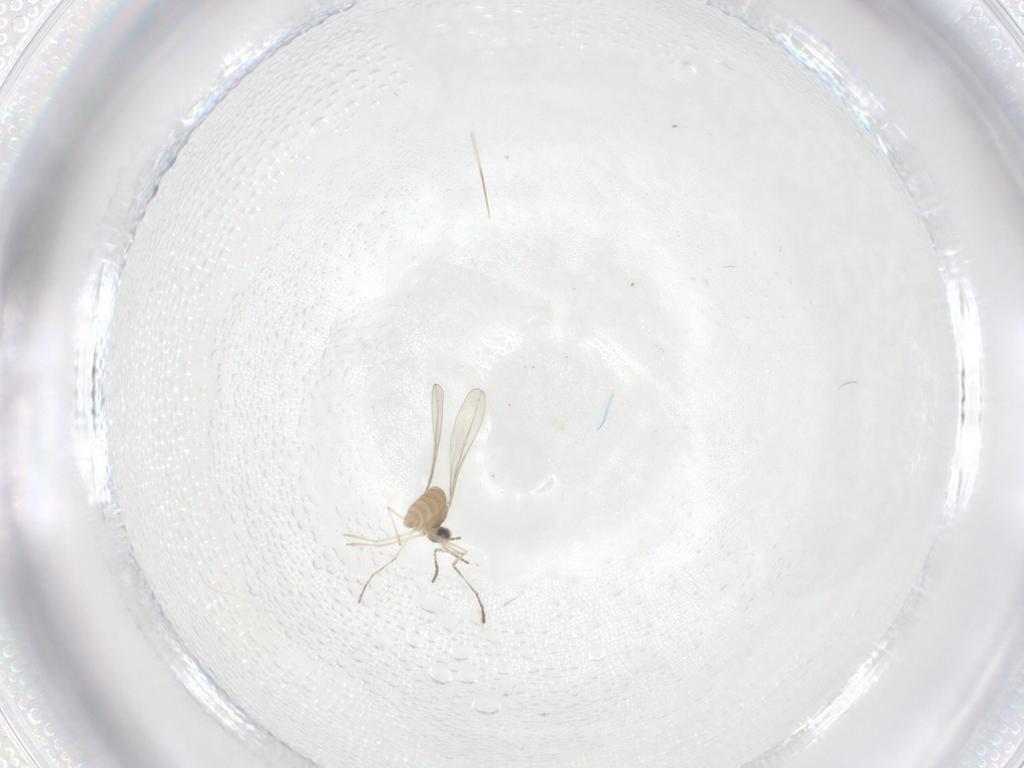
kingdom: Animalia
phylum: Arthropoda
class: Insecta
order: Diptera
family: Cecidomyiidae
